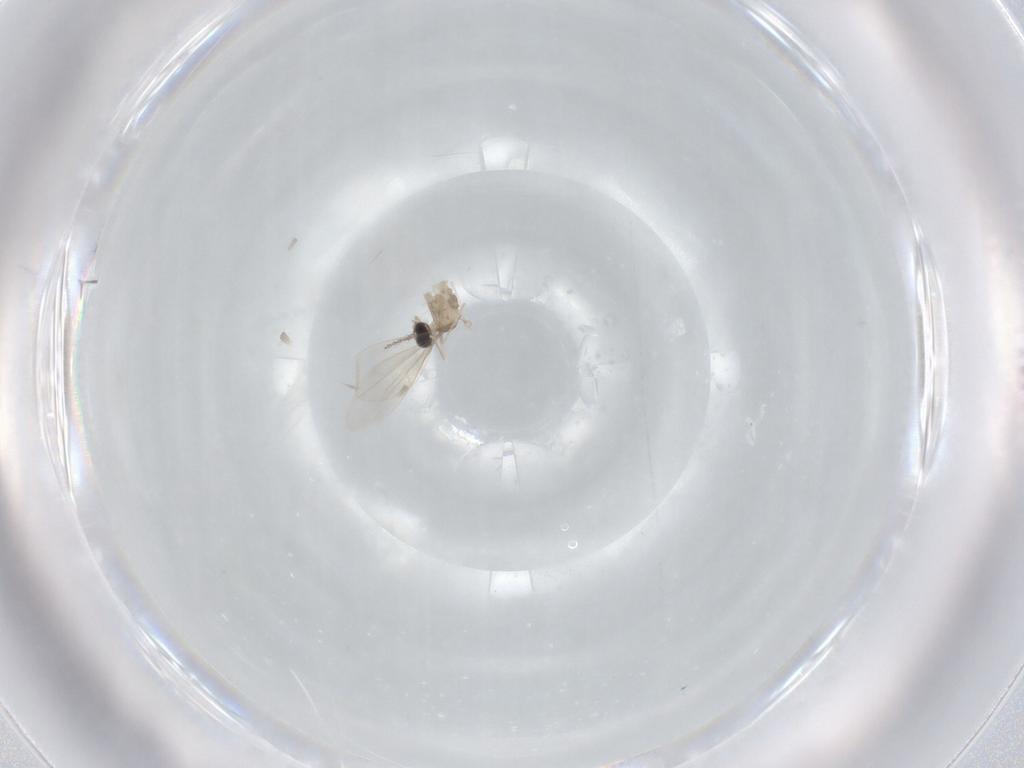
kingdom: Animalia
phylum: Arthropoda
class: Insecta
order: Diptera
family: Cecidomyiidae
